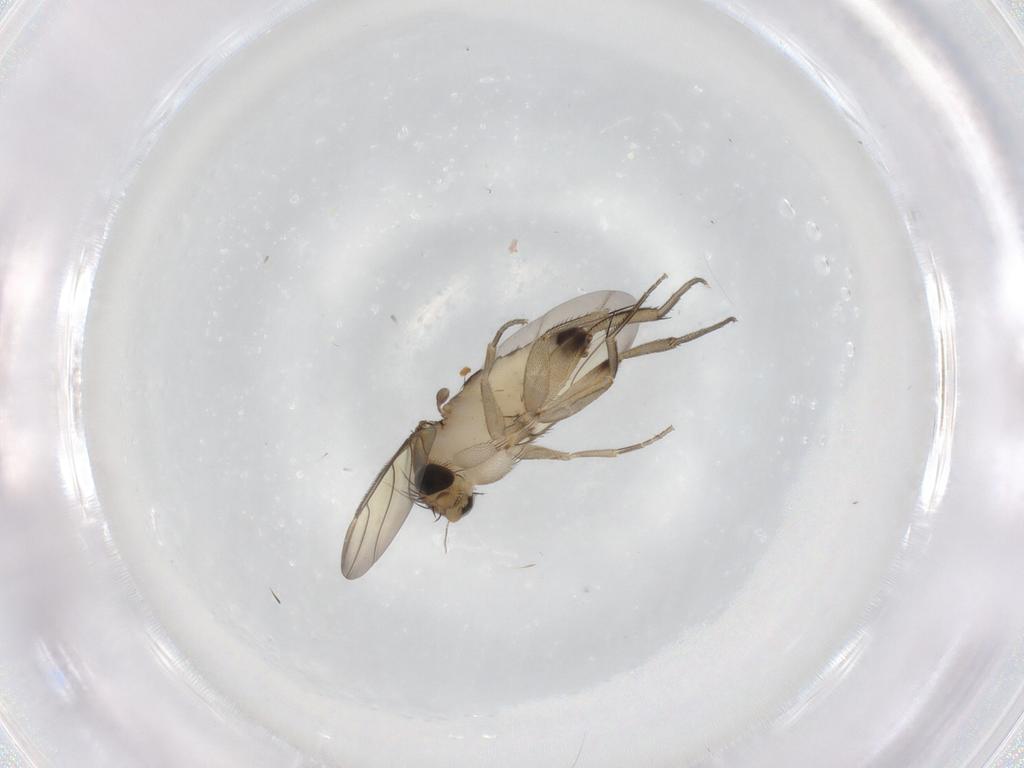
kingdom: Animalia
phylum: Arthropoda
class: Insecta
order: Diptera
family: Phoridae
